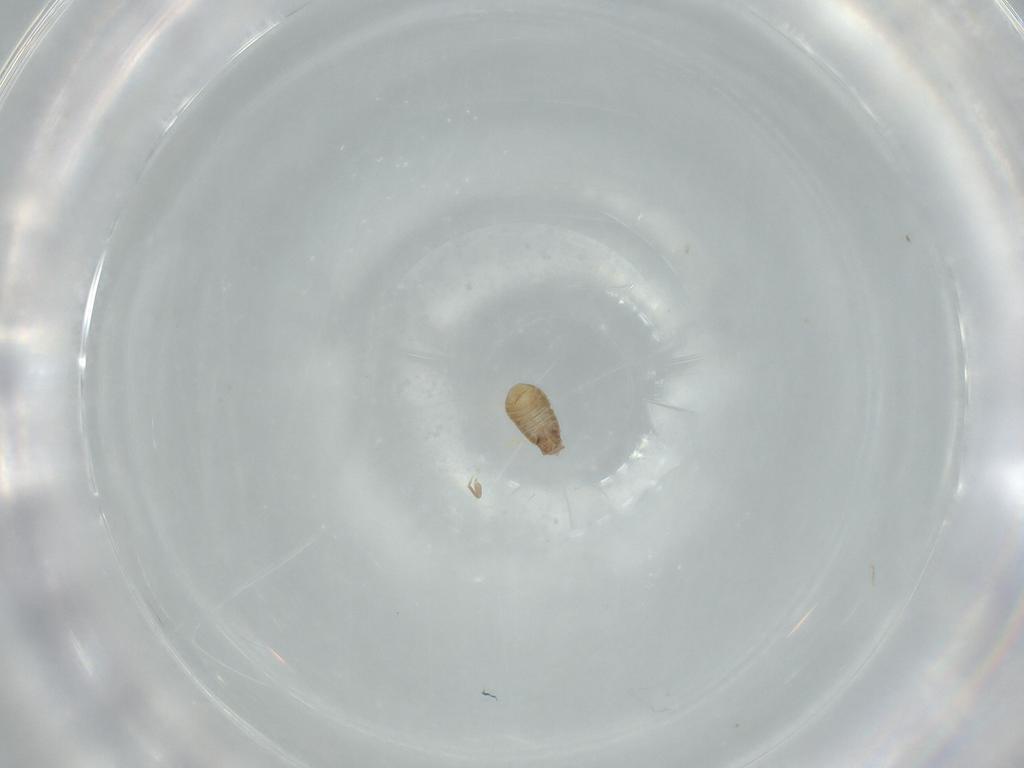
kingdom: Animalia
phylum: Arthropoda
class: Insecta
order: Psocodea
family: Liposcelididae
